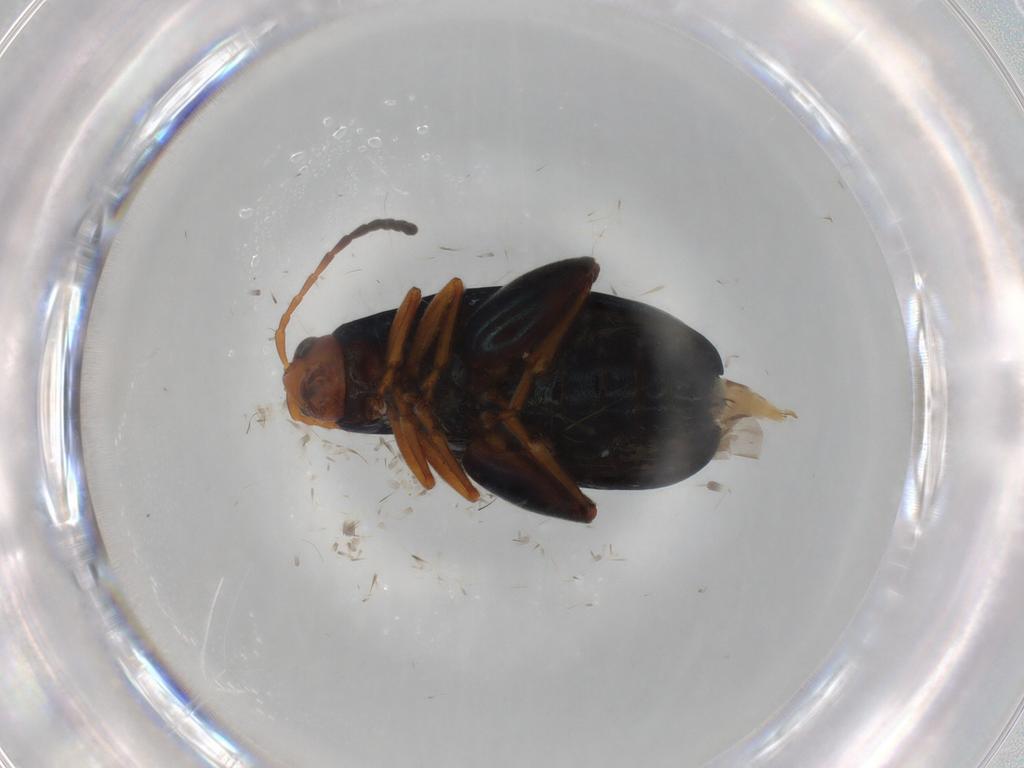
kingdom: Animalia
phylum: Arthropoda
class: Insecta
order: Coleoptera
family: Chrysomelidae
